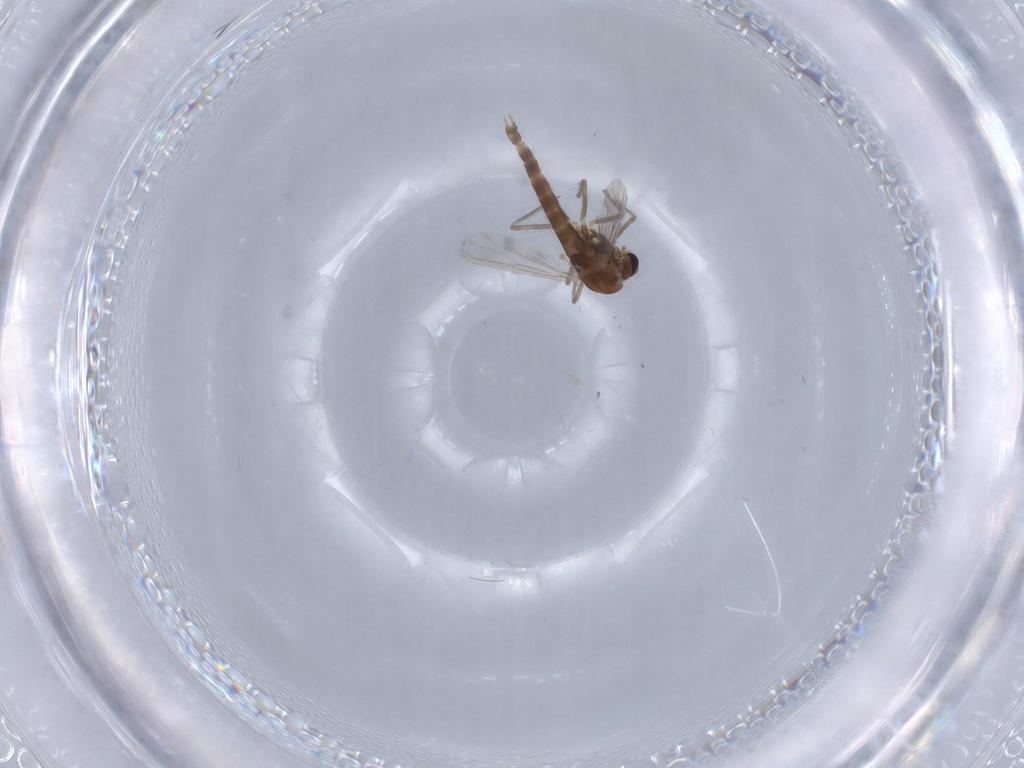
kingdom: Animalia
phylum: Arthropoda
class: Insecta
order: Diptera
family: Chironomidae
